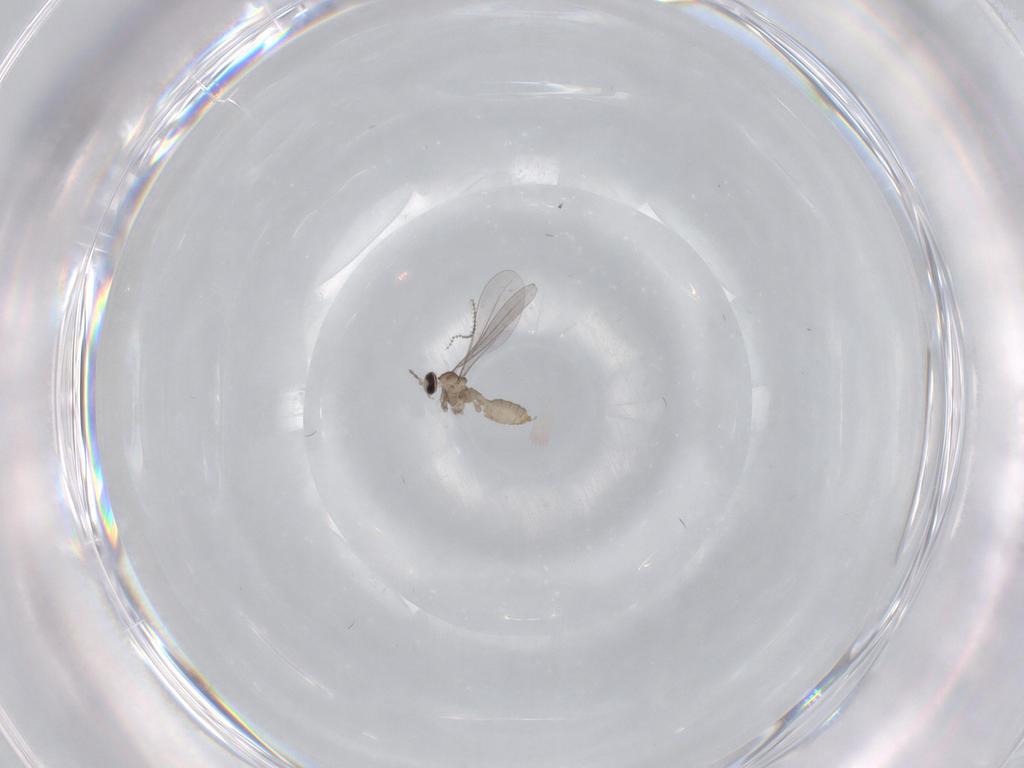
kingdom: Animalia
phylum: Arthropoda
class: Insecta
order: Diptera
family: Cecidomyiidae
